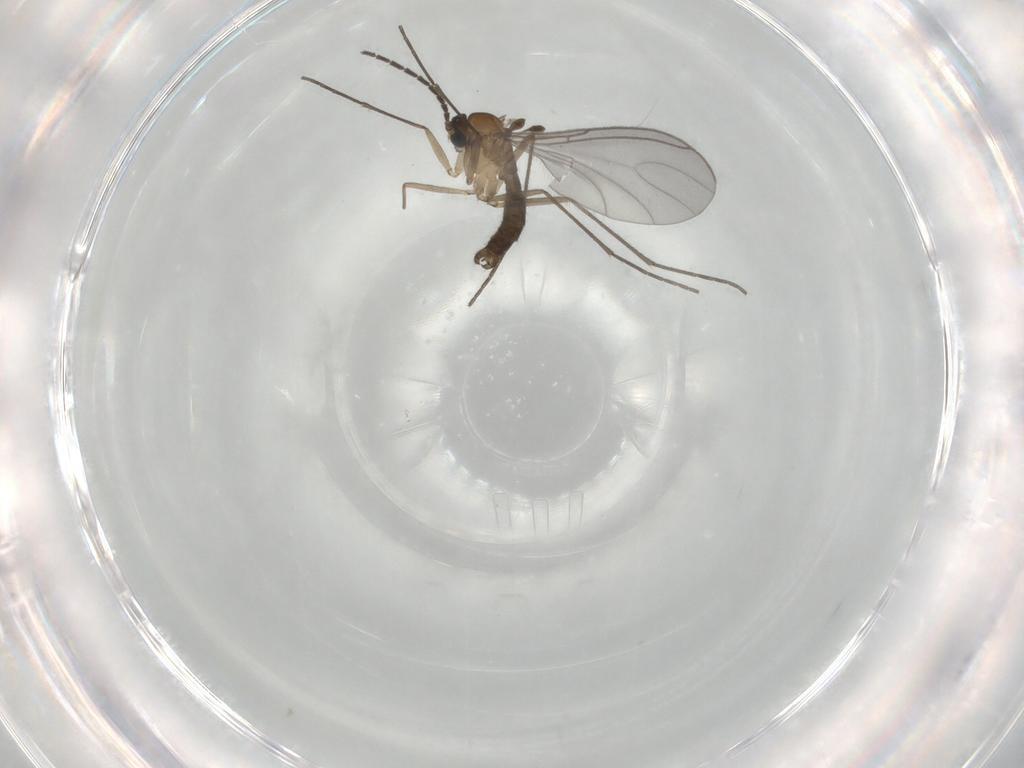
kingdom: Animalia
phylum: Arthropoda
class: Insecta
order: Diptera
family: Sciaridae
